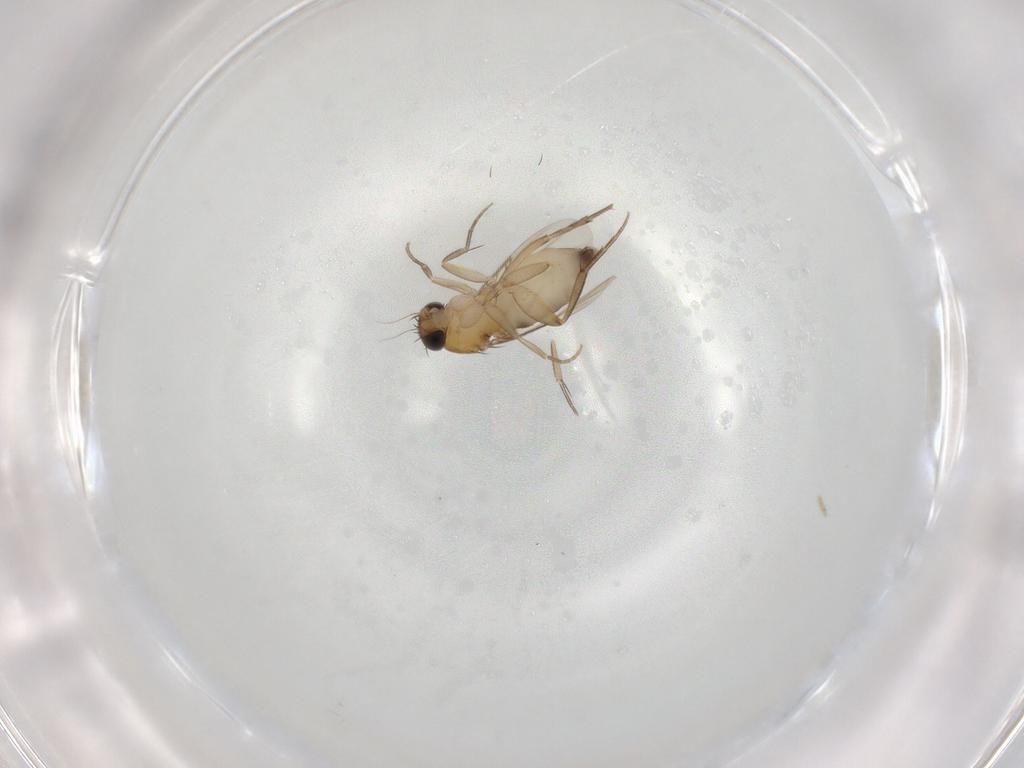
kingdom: Animalia
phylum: Arthropoda
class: Insecta
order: Diptera
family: Phoridae
